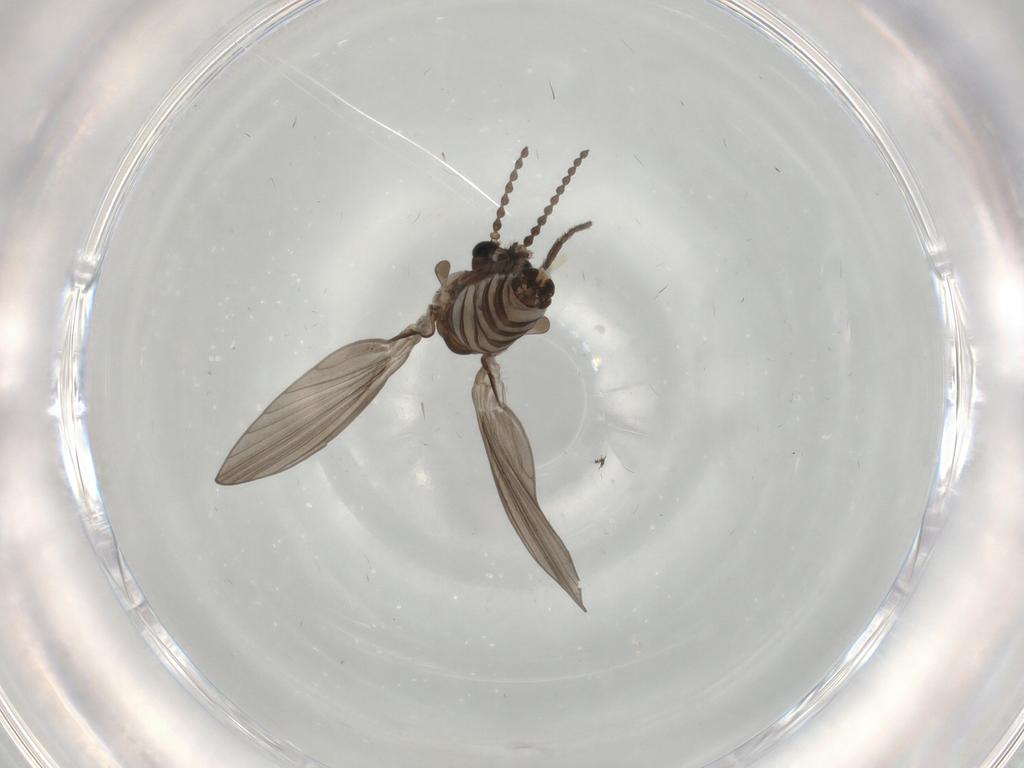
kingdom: Animalia
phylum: Arthropoda
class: Insecta
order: Diptera
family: Psychodidae
